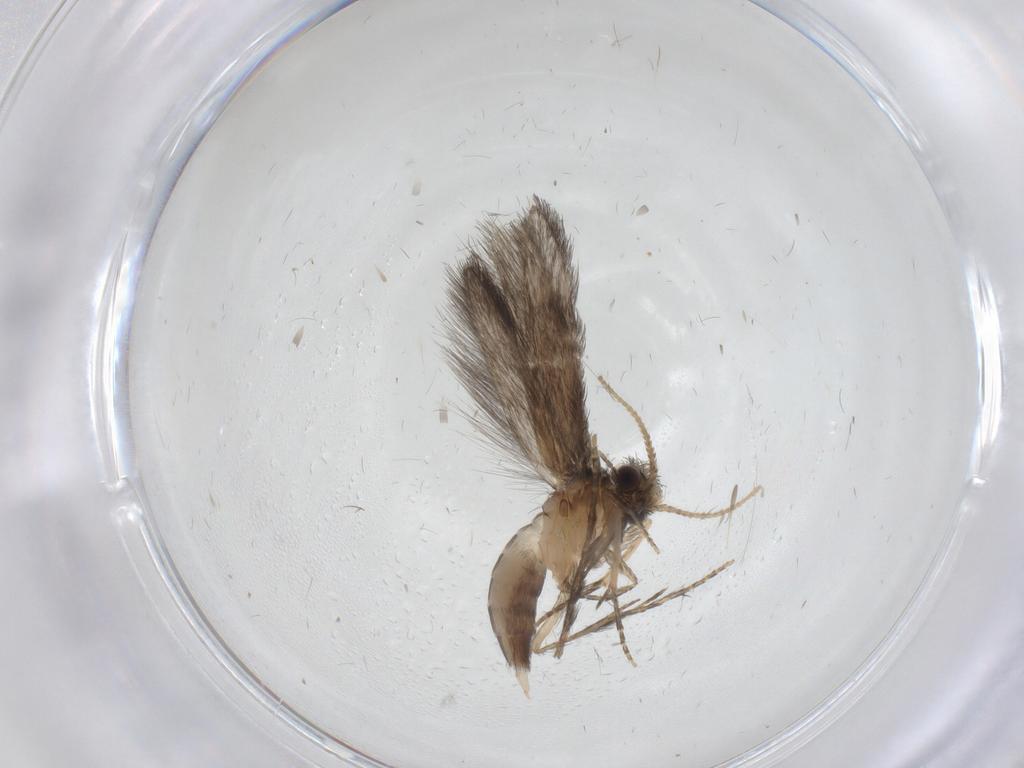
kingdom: Animalia
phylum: Arthropoda
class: Insecta
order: Trichoptera
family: Hydroptilidae
